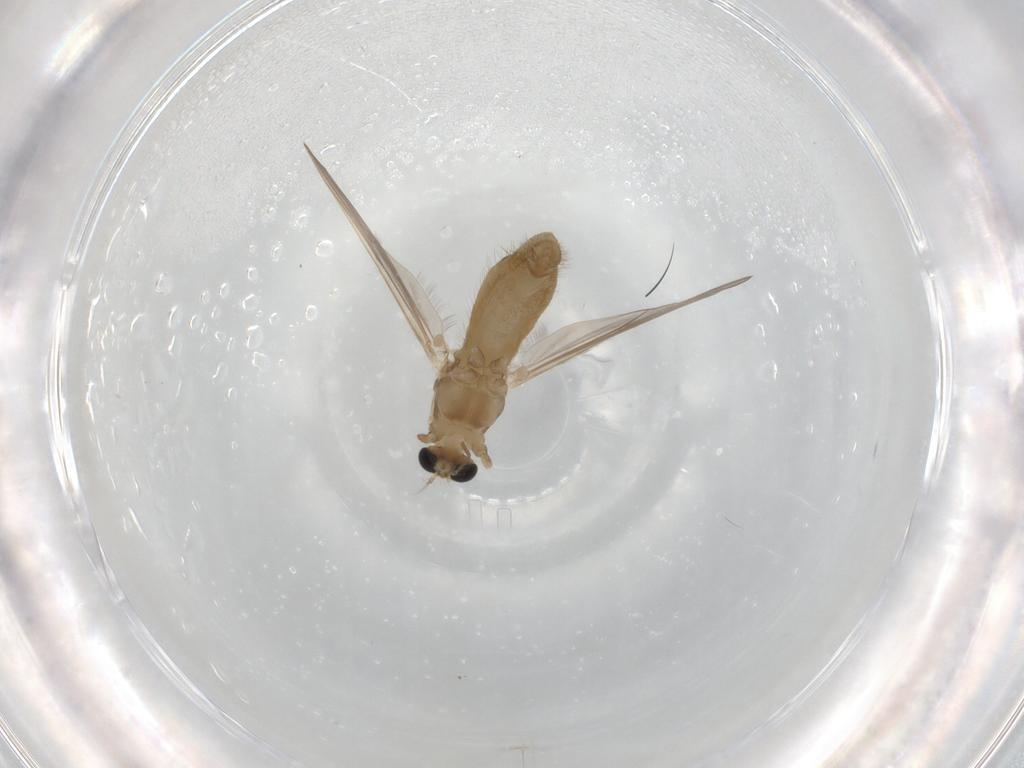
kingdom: Animalia
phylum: Arthropoda
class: Insecta
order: Diptera
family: Chironomidae
